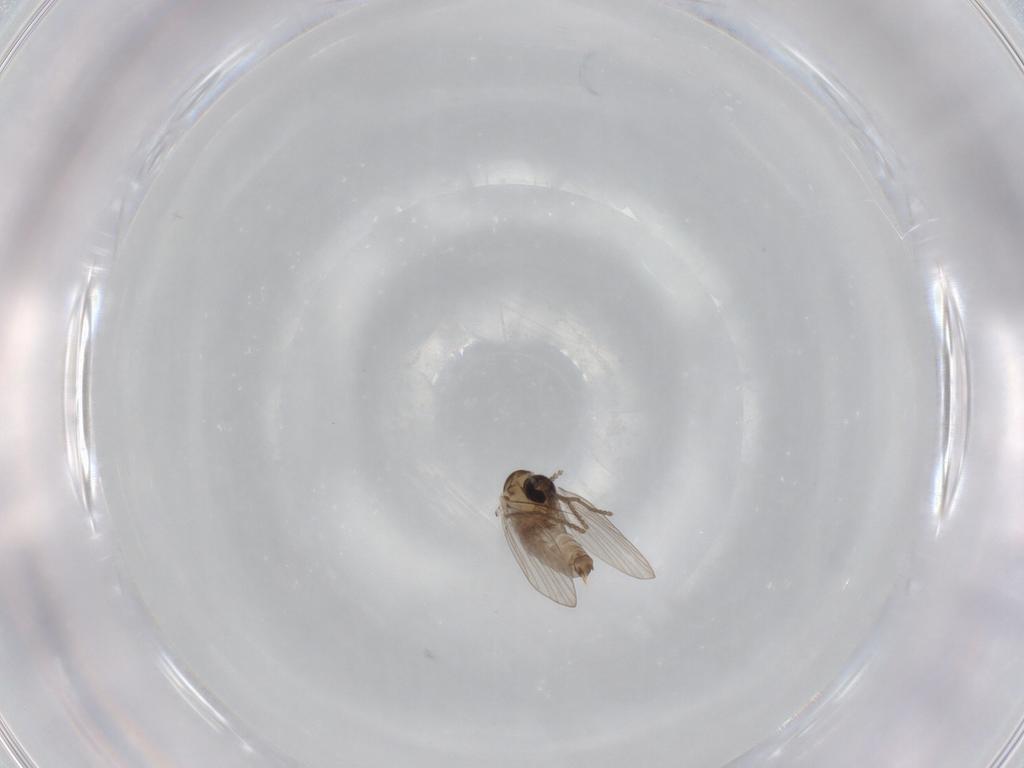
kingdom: Animalia
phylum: Arthropoda
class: Insecta
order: Diptera
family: Psychodidae
